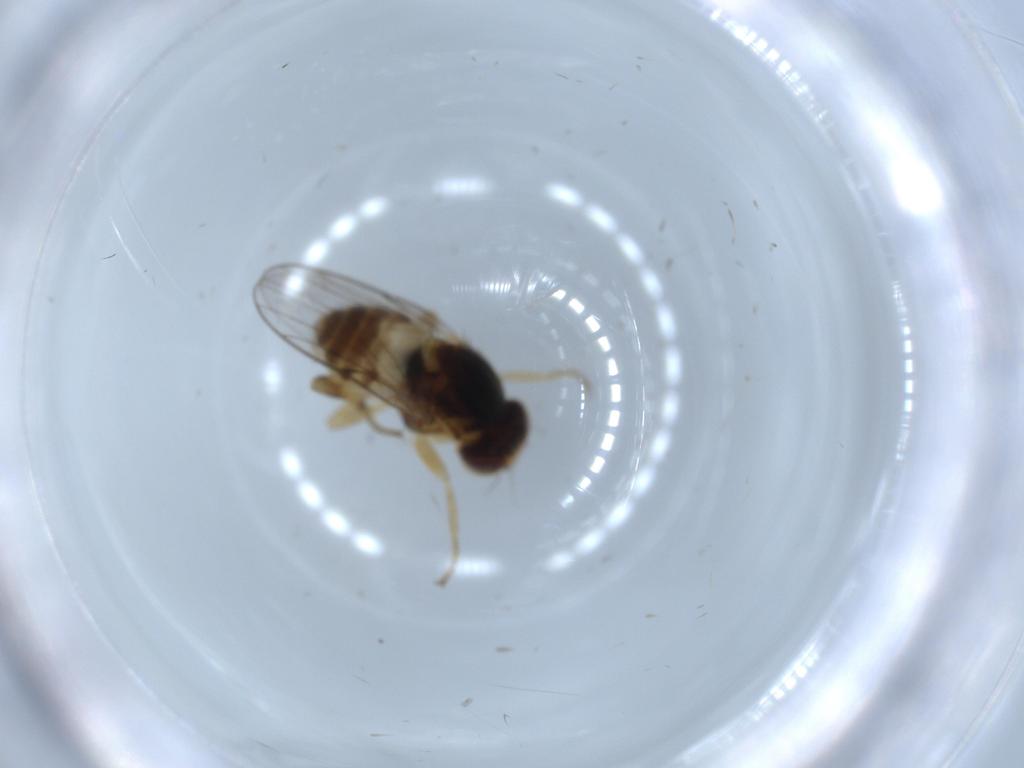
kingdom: Animalia
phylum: Arthropoda
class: Insecta
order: Diptera
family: Chloropidae
